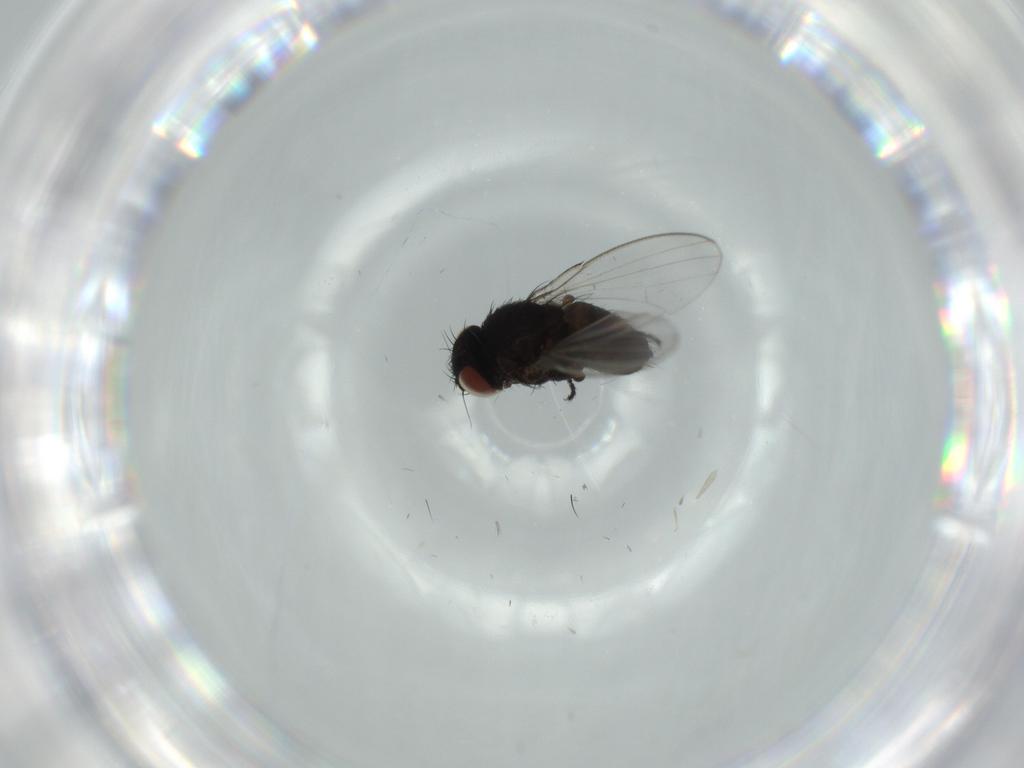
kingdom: Animalia
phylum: Arthropoda
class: Insecta
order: Diptera
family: Milichiidae
